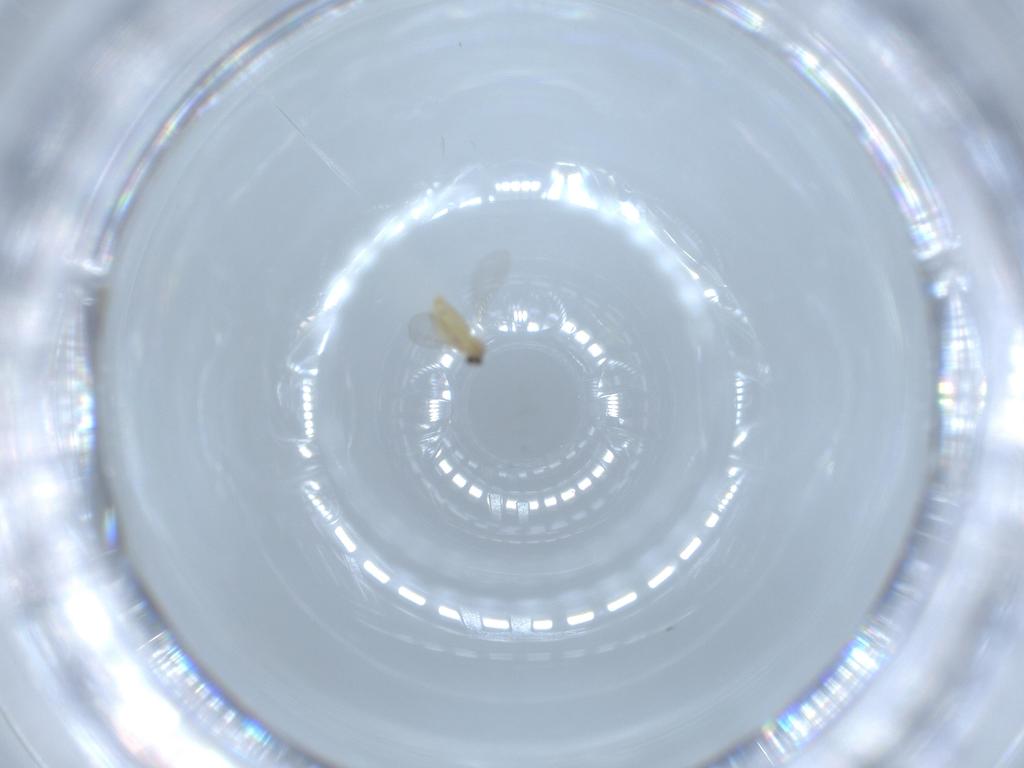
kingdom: Animalia
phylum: Arthropoda
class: Insecta
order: Diptera
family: Cecidomyiidae
